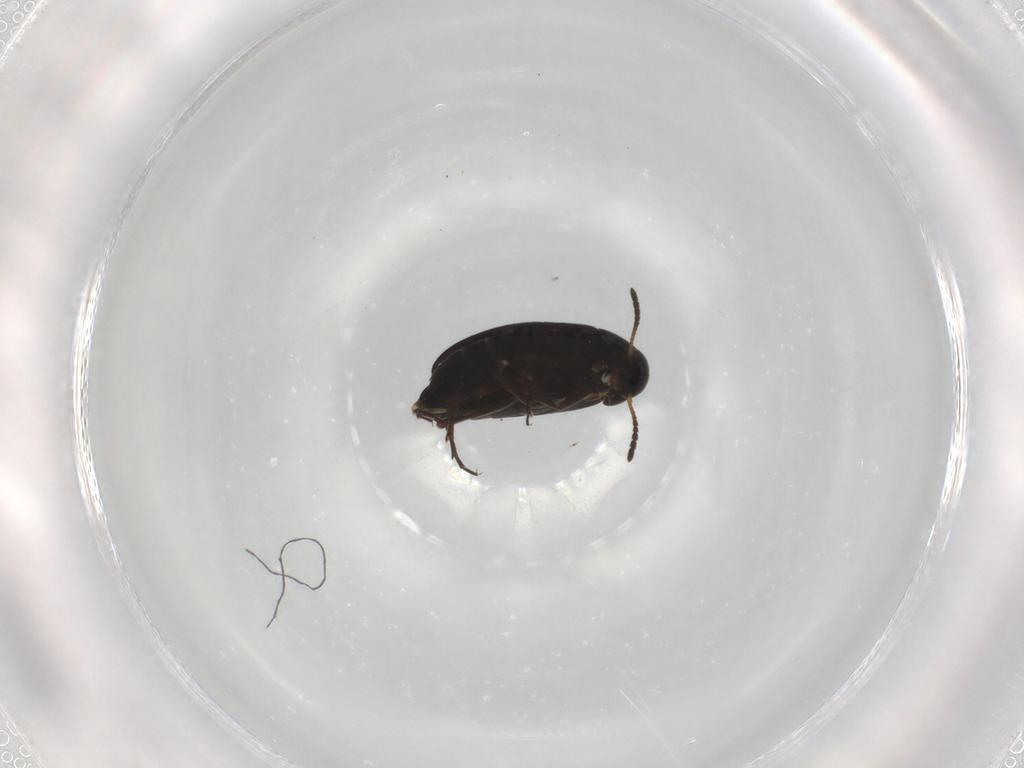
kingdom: Animalia
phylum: Arthropoda
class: Insecta
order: Coleoptera
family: Scraptiidae
